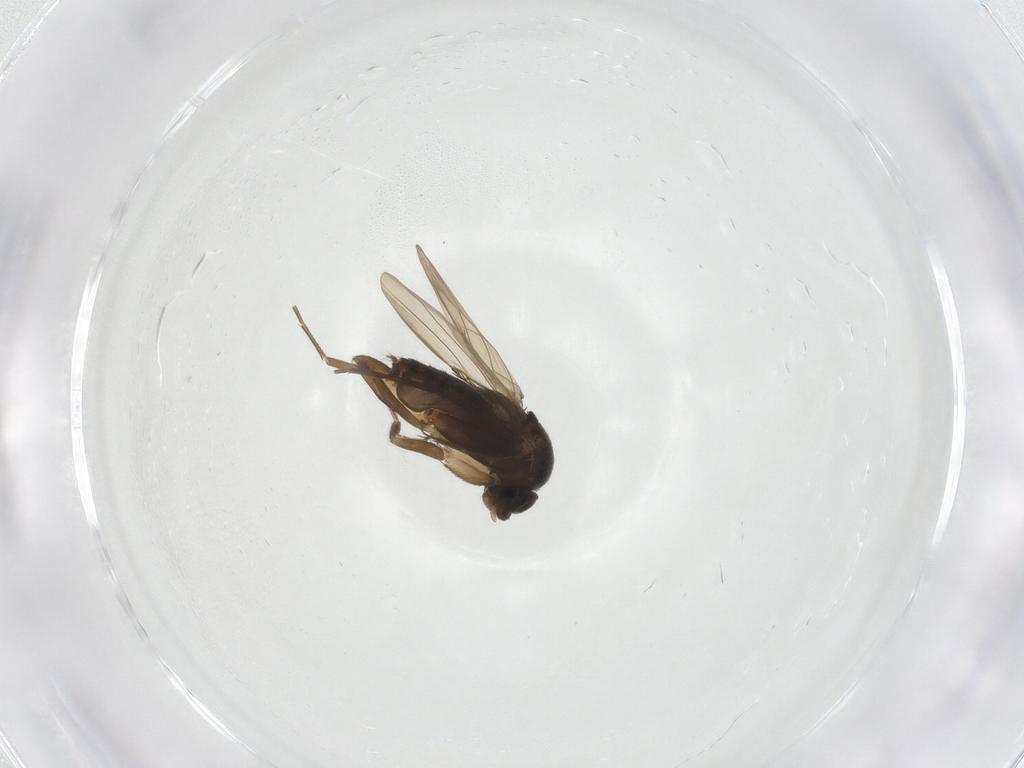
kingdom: Animalia
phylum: Arthropoda
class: Insecta
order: Diptera
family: Phoridae
